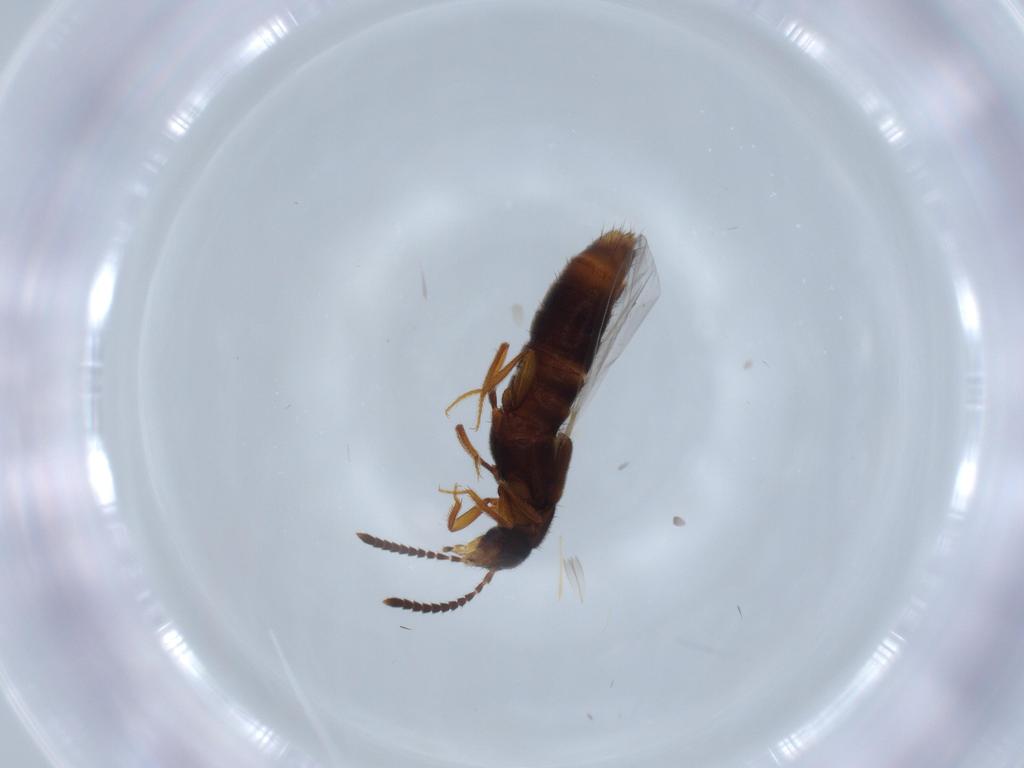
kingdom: Animalia
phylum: Arthropoda
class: Insecta
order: Coleoptera
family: Coccinellidae
